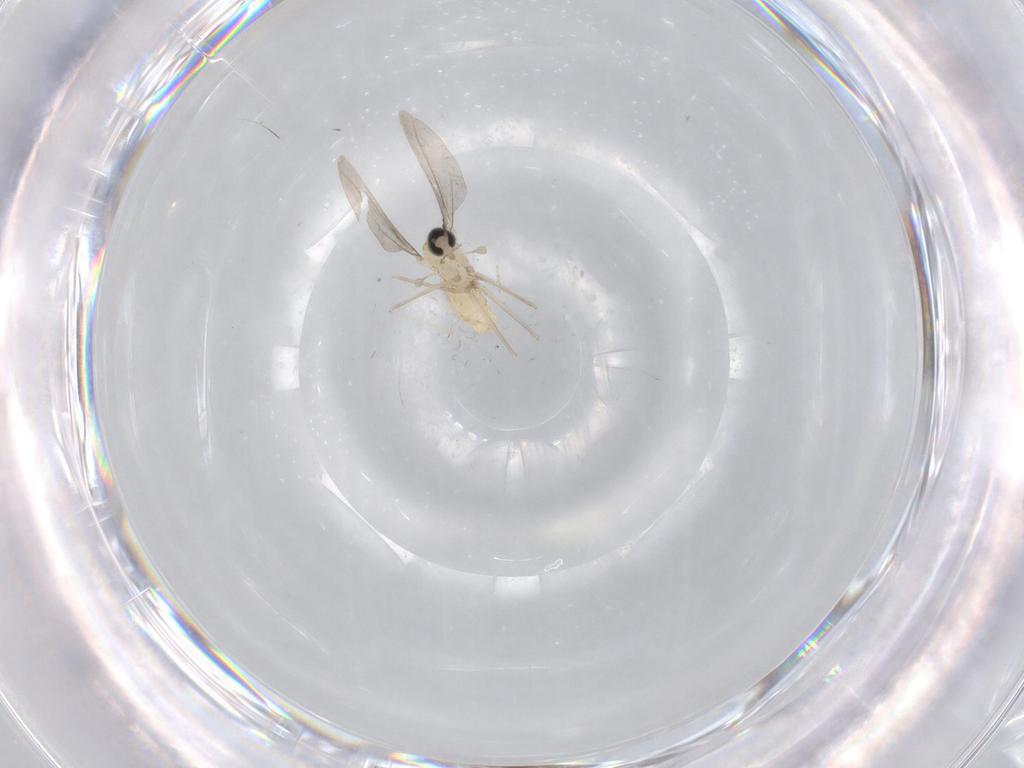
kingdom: Animalia
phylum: Arthropoda
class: Insecta
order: Diptera
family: Cecidomyiidae
